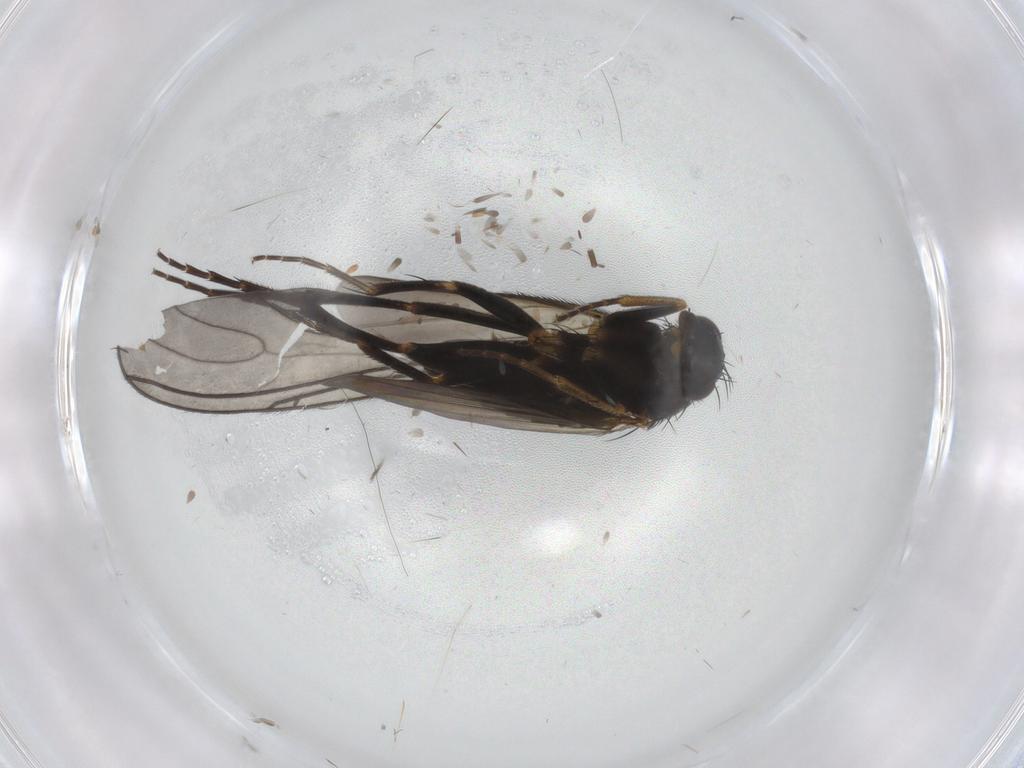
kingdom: Animalia
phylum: Arthropoda
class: Insecta
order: Diptera
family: Phoridae
